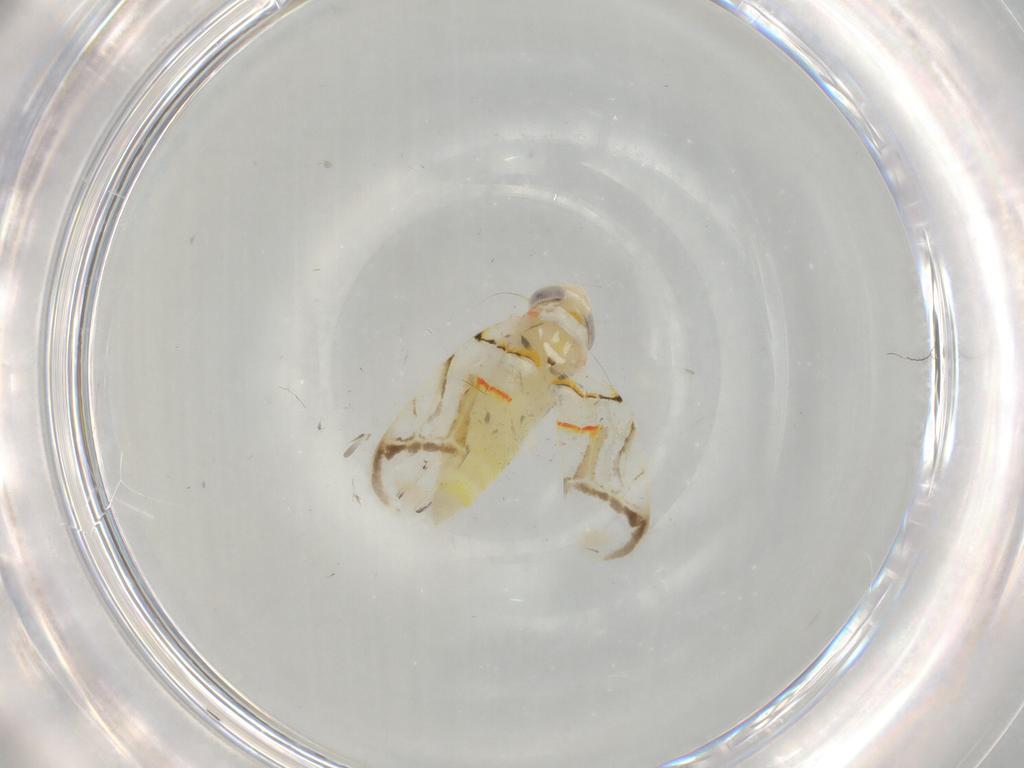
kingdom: Animalia
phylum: Arthropoda
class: Insecta
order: Hemiptera
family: Cicadellidae
